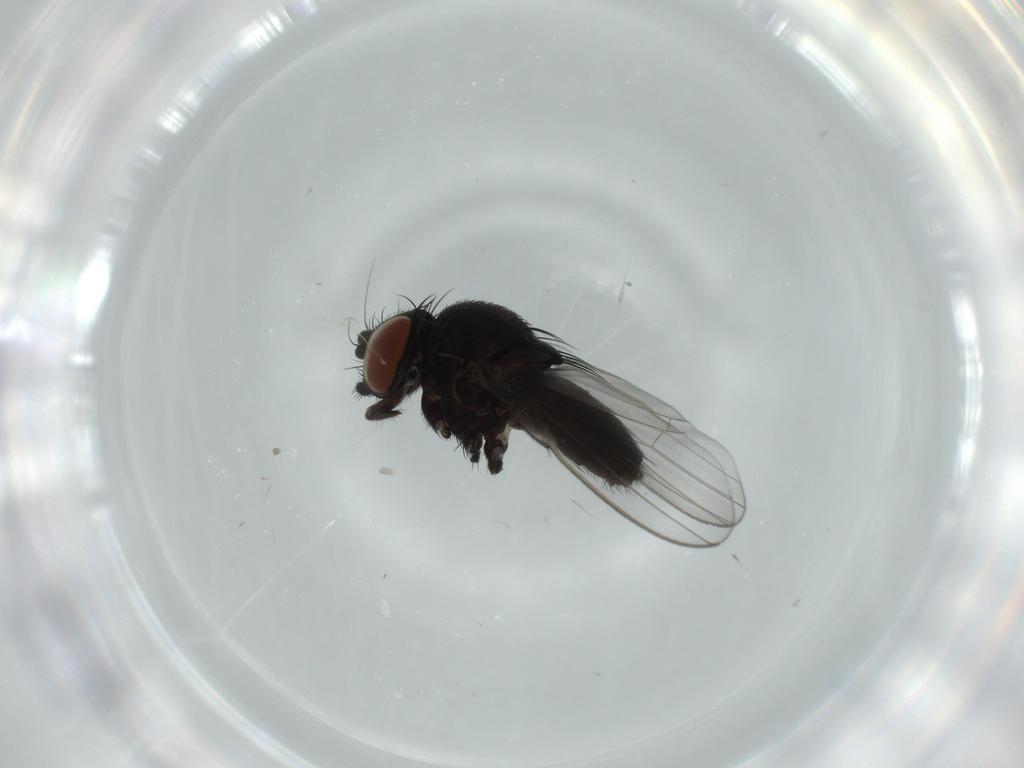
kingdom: Animalia
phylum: Arthropoda
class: Insecta
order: Diptera
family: Milichiidae
